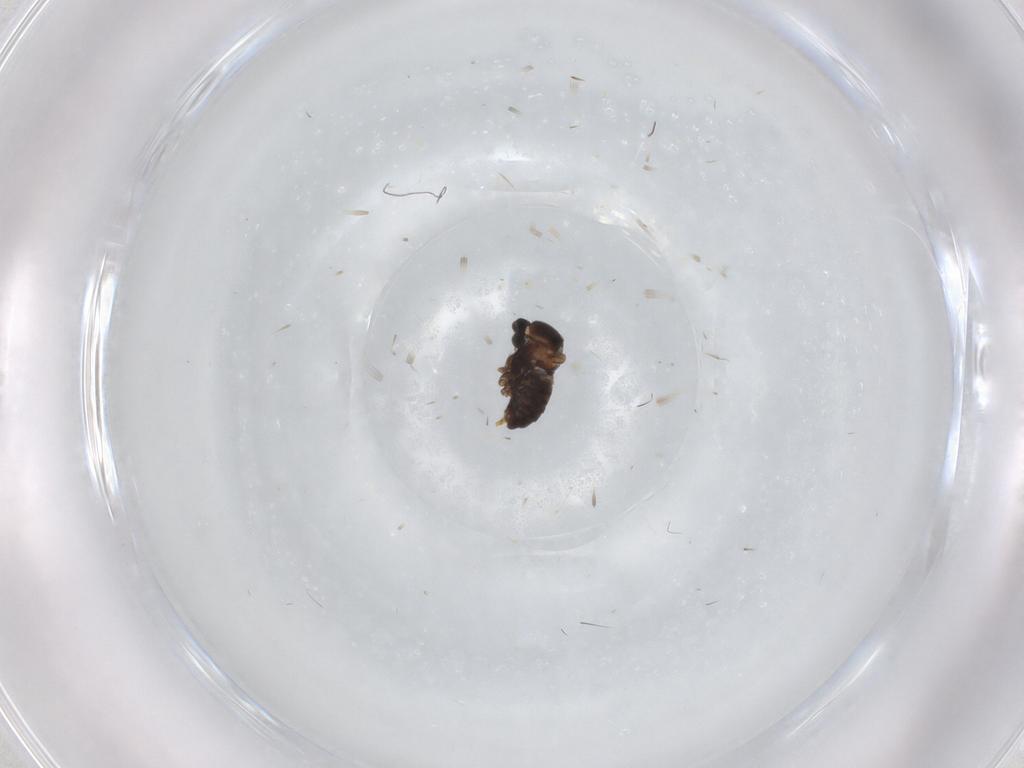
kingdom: Animalia
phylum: Arthropoda
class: Insecta
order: Diptera
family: Cecidomyiidae
